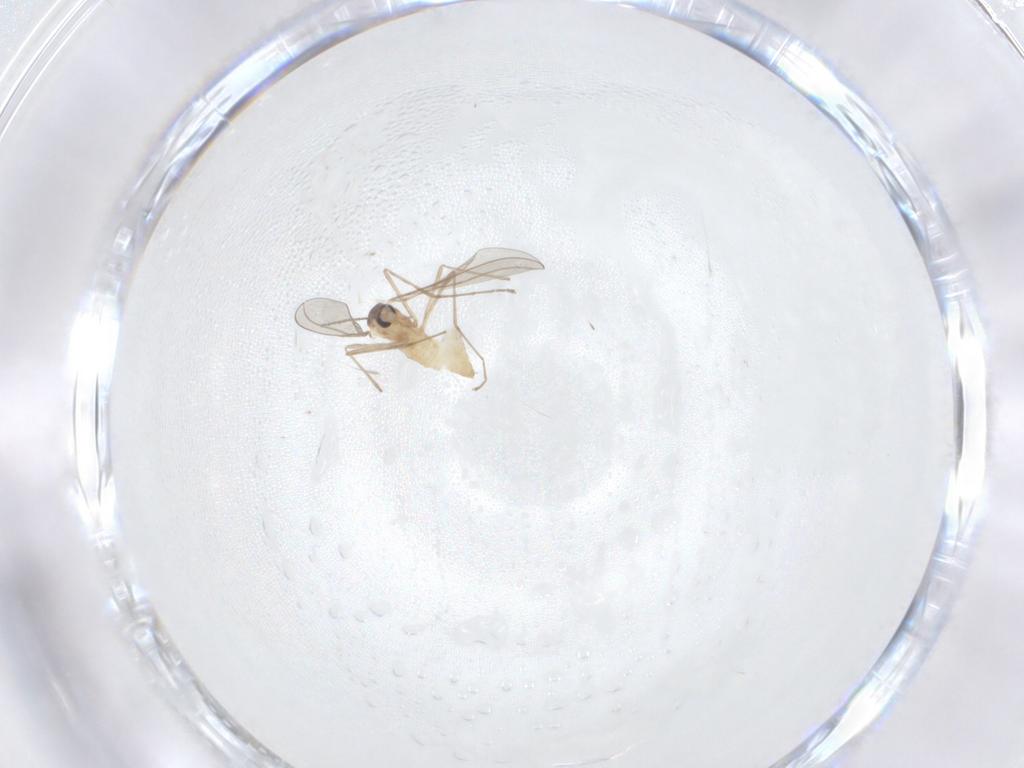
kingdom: Animalia
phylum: Arthropoda
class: Insecta
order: Diptera
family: Cecidomyiidae
